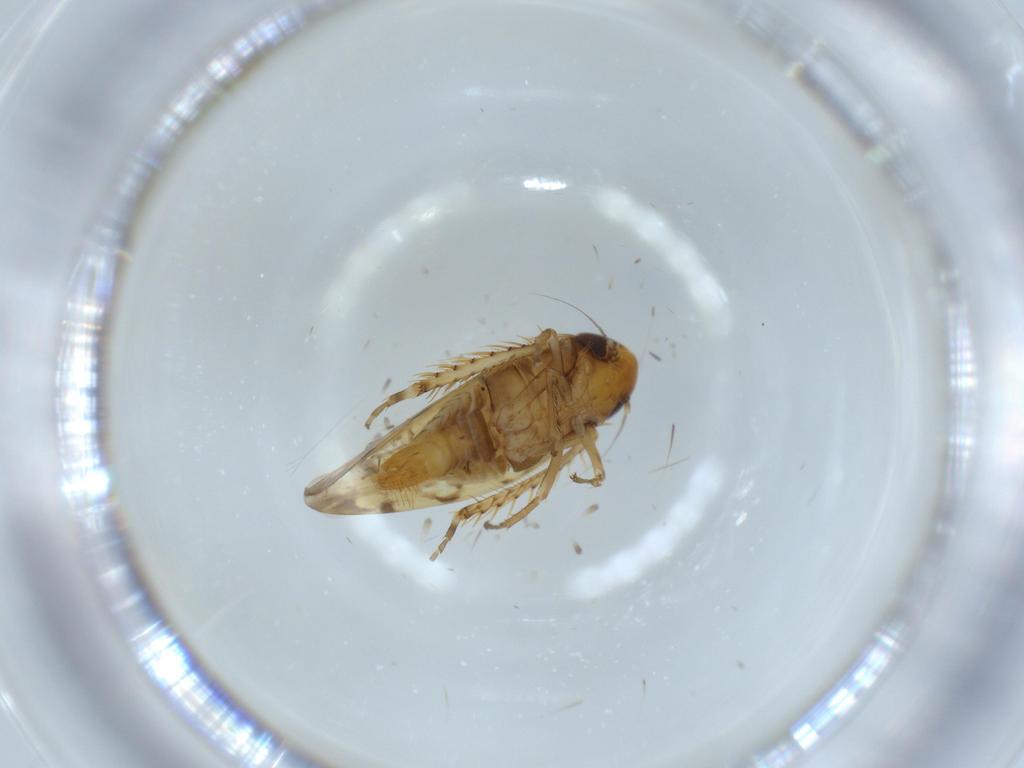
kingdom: Animalia
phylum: Arthropoda
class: Insecta
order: Hemiptera
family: Cicadellidae
